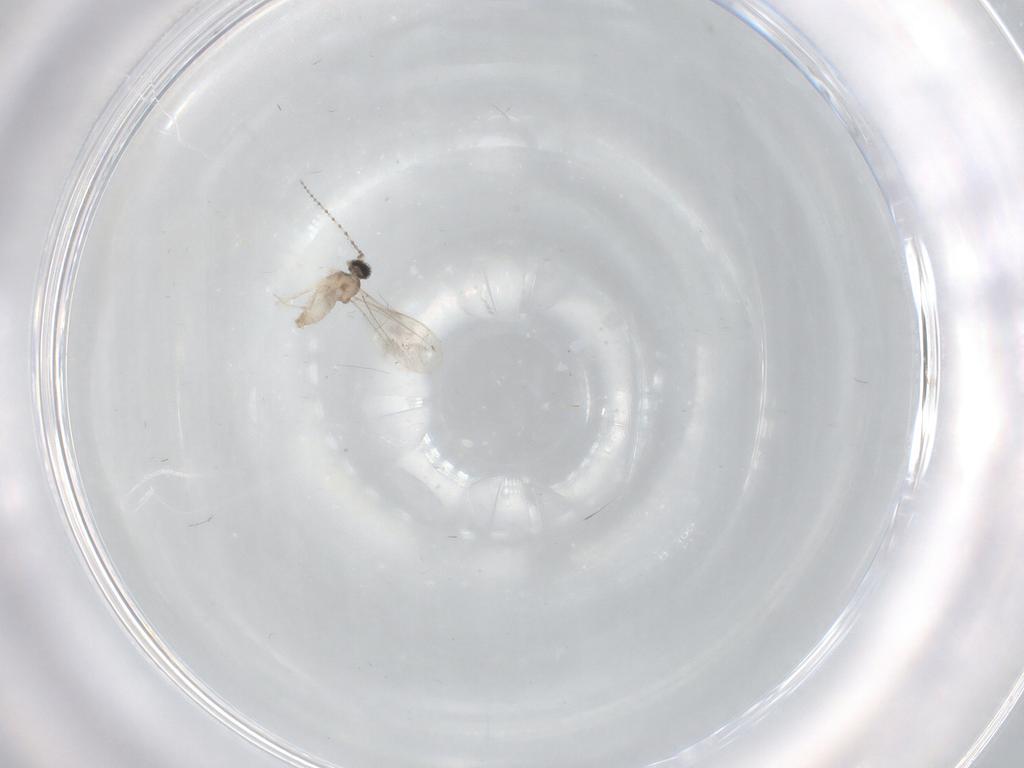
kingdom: Animalia
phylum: Arthropoda
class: Insecta
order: Diptera
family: Cecidomyiidae
